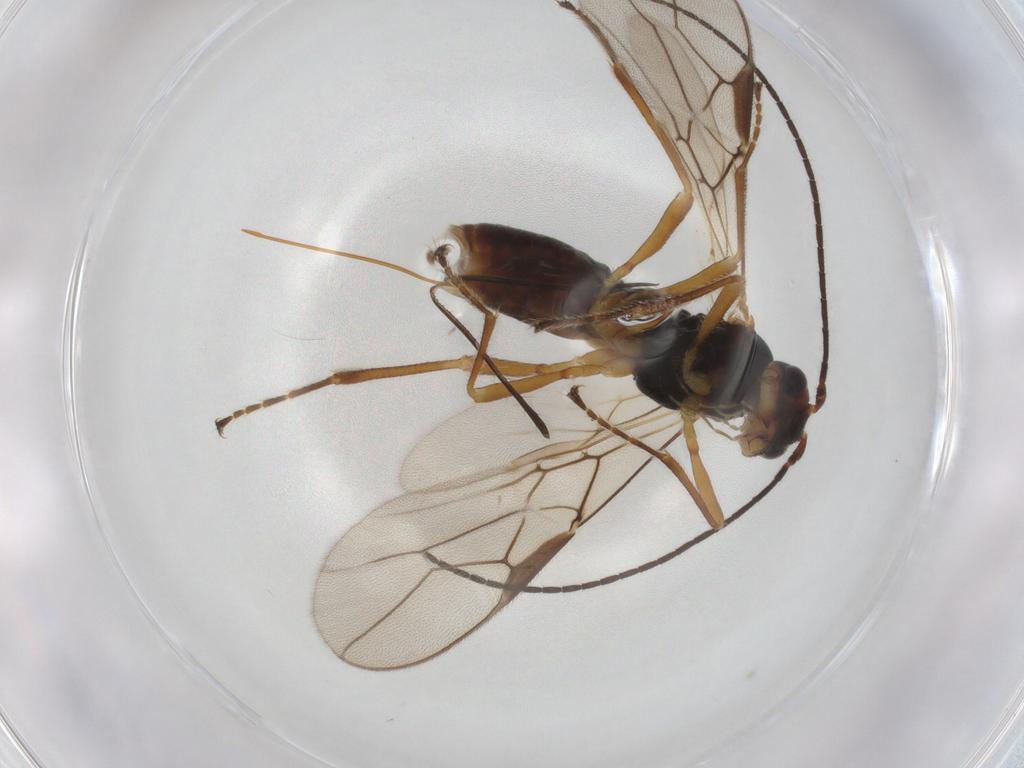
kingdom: Animalia
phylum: Arthropoda
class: Insecta
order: Hymenoptera
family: Braconidae
